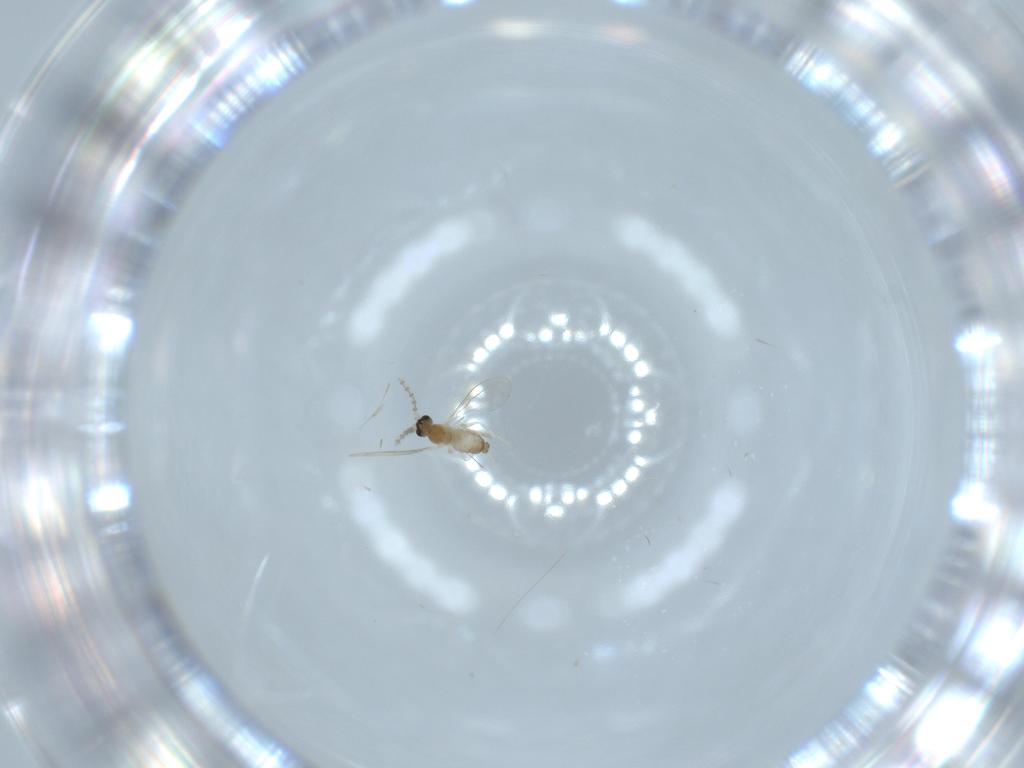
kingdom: Animalia
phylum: Arthropoda
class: Insecta
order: Diptera
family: Cecidomyiidae
